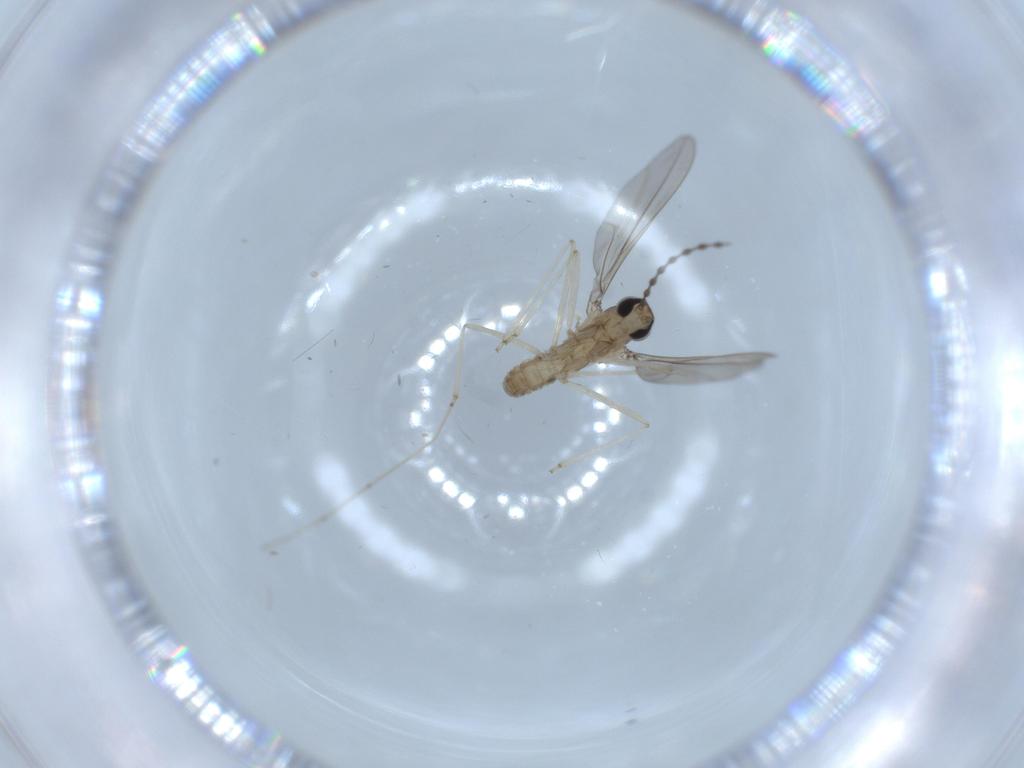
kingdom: Animalia
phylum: Arthropoda
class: Insecta
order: Diptera
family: Cecidomyiidae
